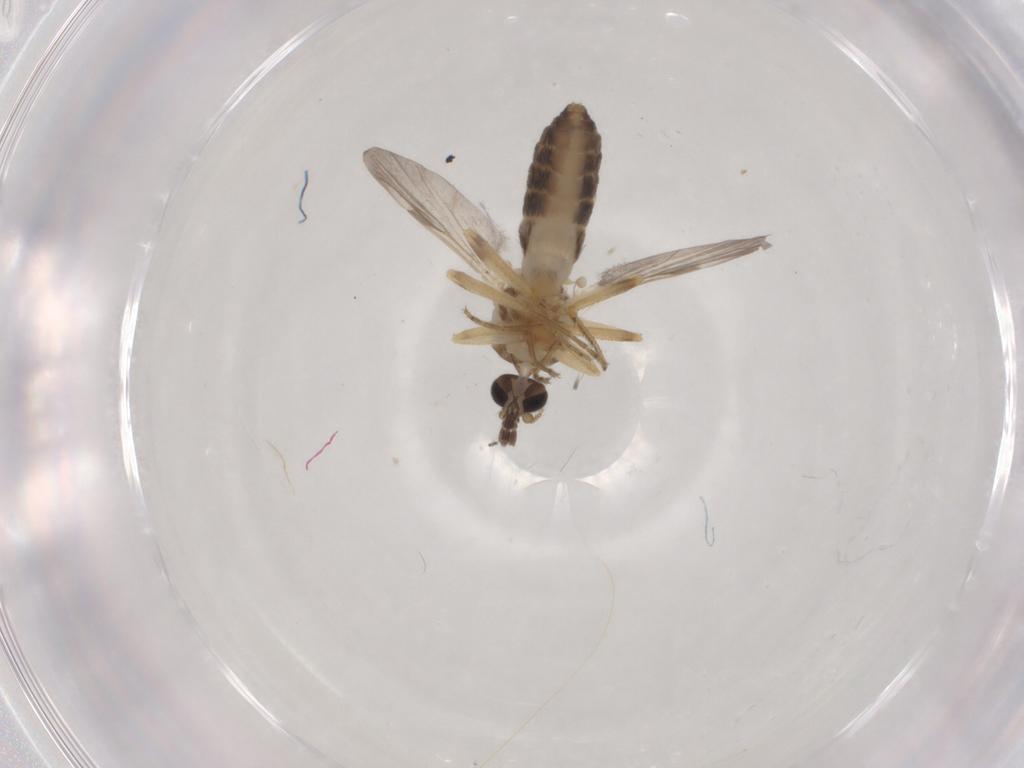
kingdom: Animalia
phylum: Arthropoda
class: Insecta
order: Diptera
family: Ceratopogonidae
